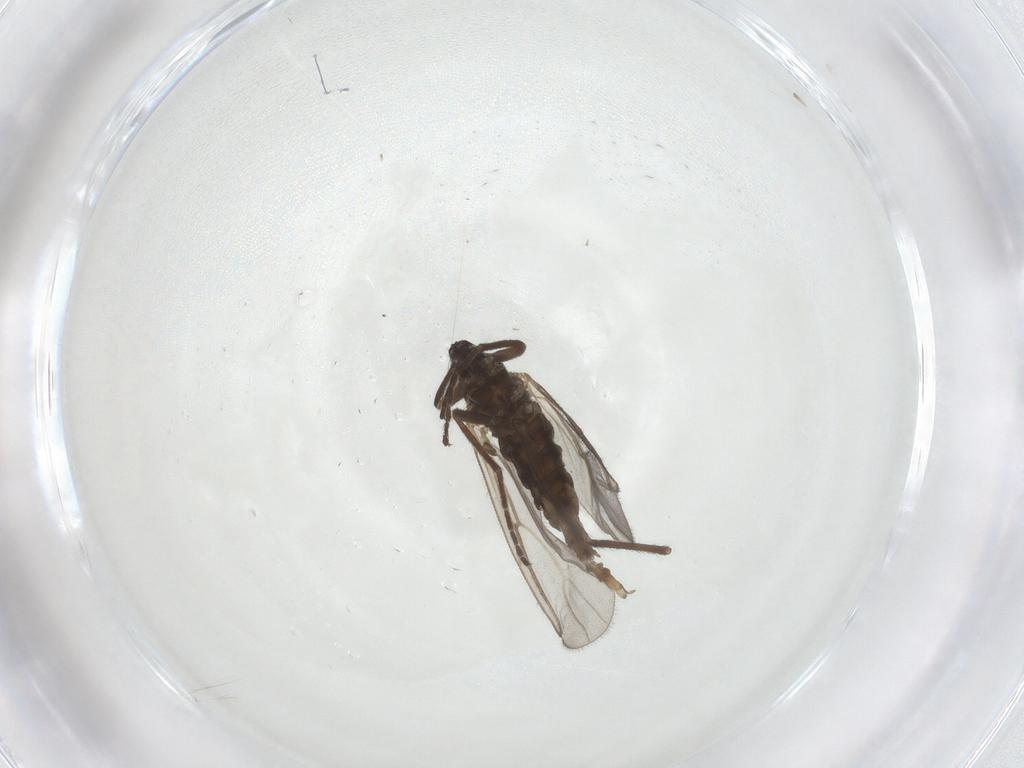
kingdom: Animalia
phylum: Arthropoda
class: Insecta
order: Diptera
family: Cecidomyiidae
